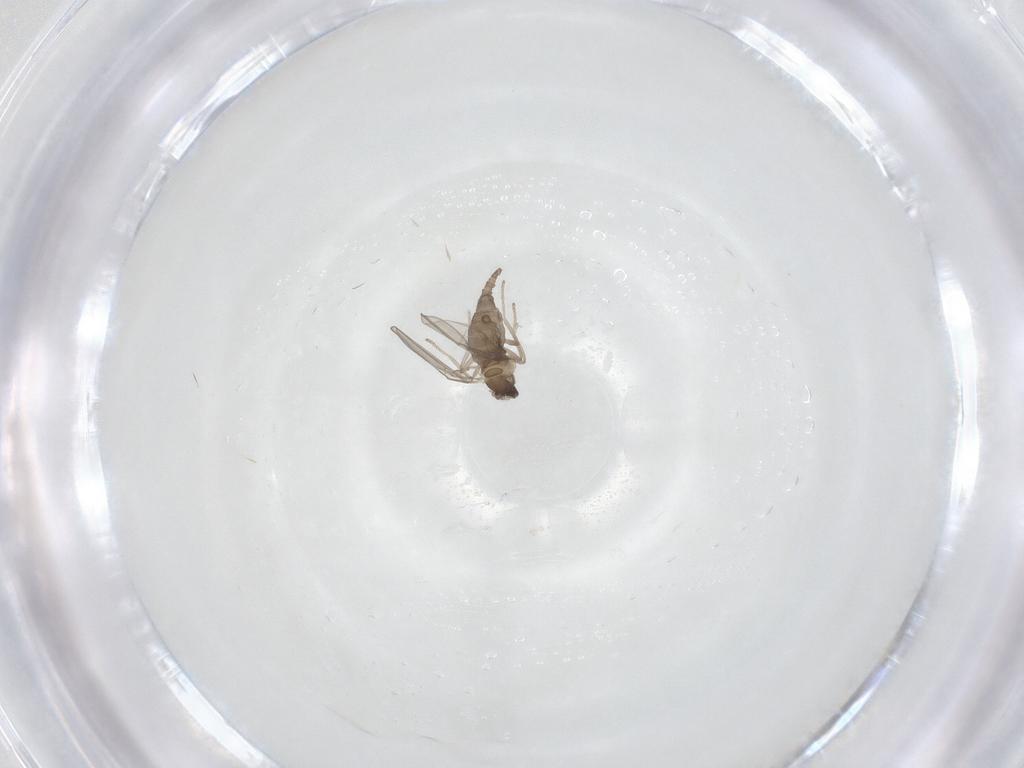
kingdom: Animalia
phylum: Arthropoda
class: Insecta
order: Diptera
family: Cecidomyiidae
